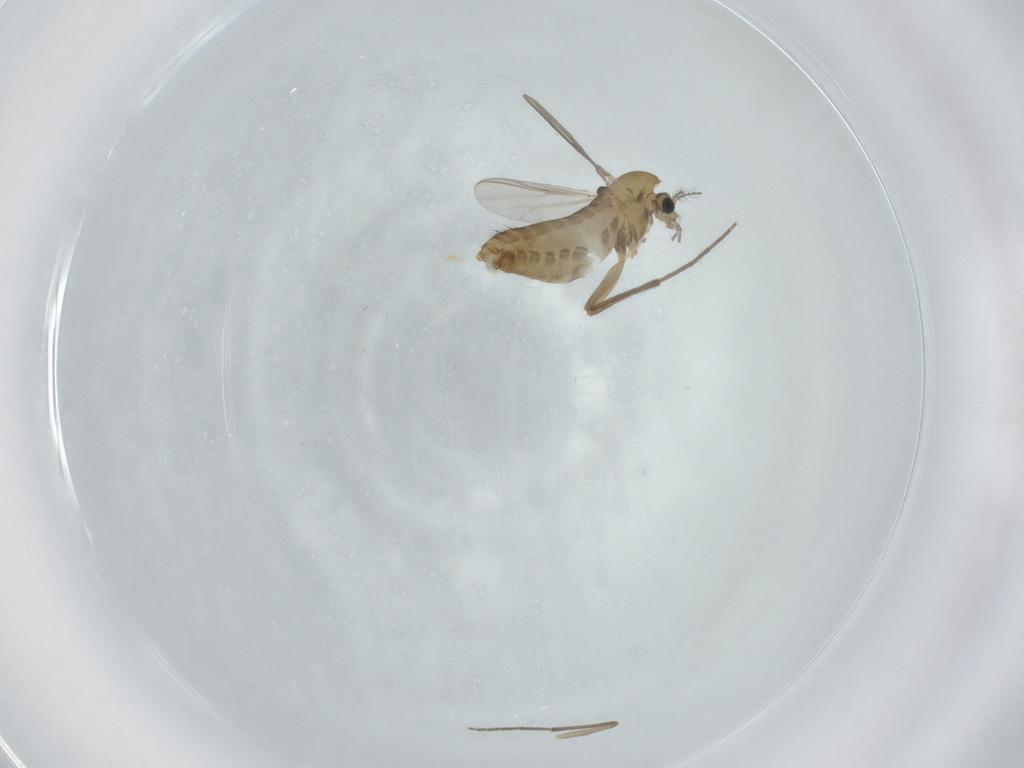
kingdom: Animalia
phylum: Arthropoda
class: Insecta
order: Diptera
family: Chironomidae
